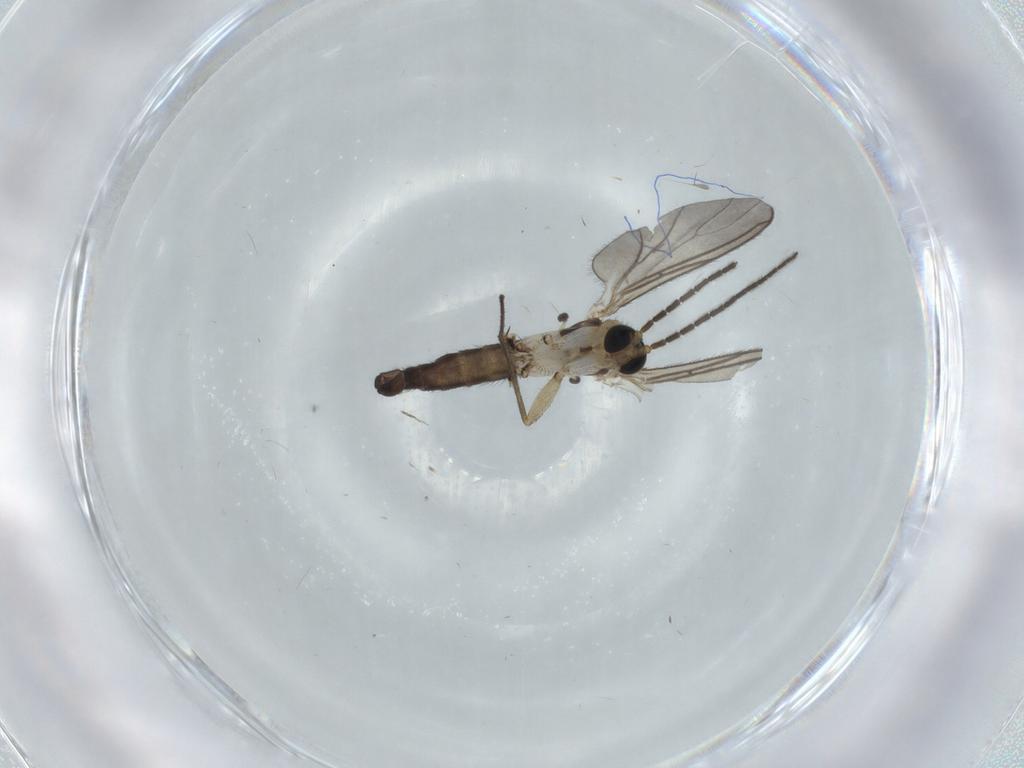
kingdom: Animalia
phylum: Arthropoda
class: Insecta
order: Diptera
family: Sciaridae
